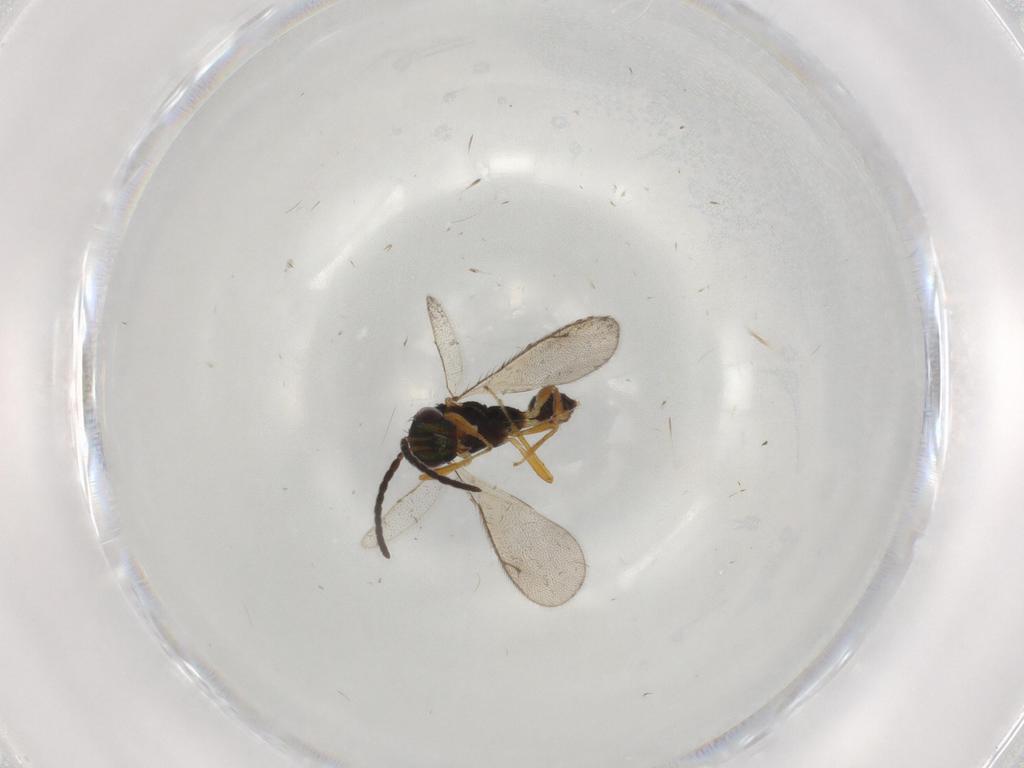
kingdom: Animalia
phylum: Arthropoda
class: Insecta
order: Hymenoptera
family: Diparidae
